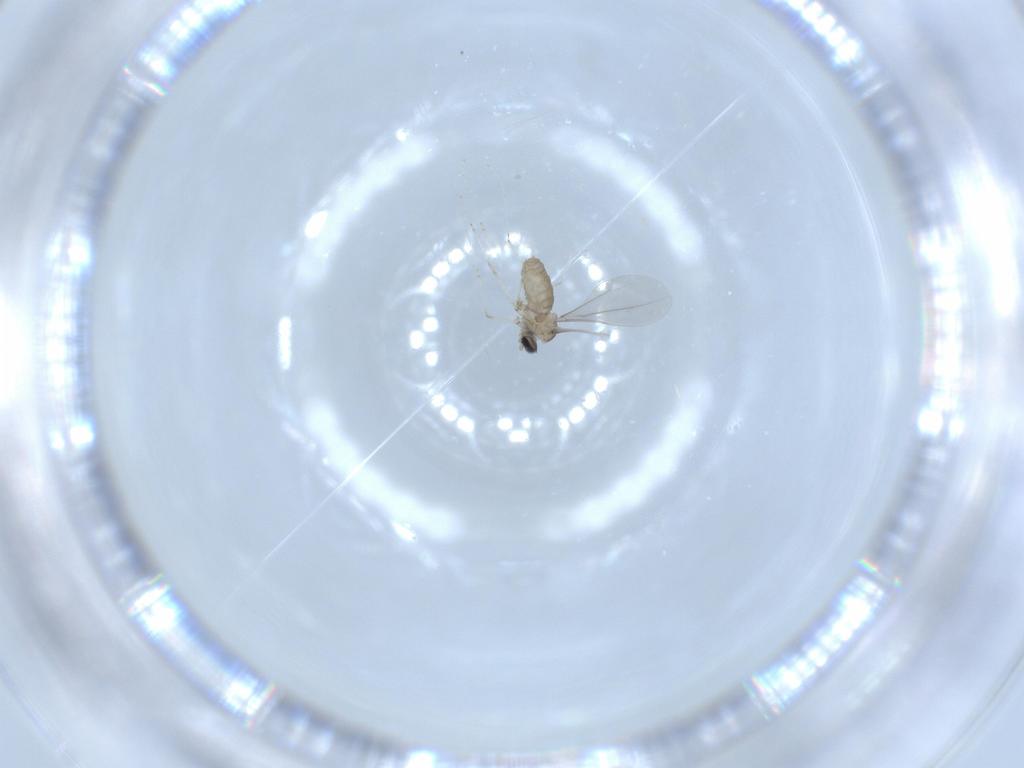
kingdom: Animalia
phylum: Arthropoda
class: Insecta
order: Diptera
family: Cecidomyiidae
